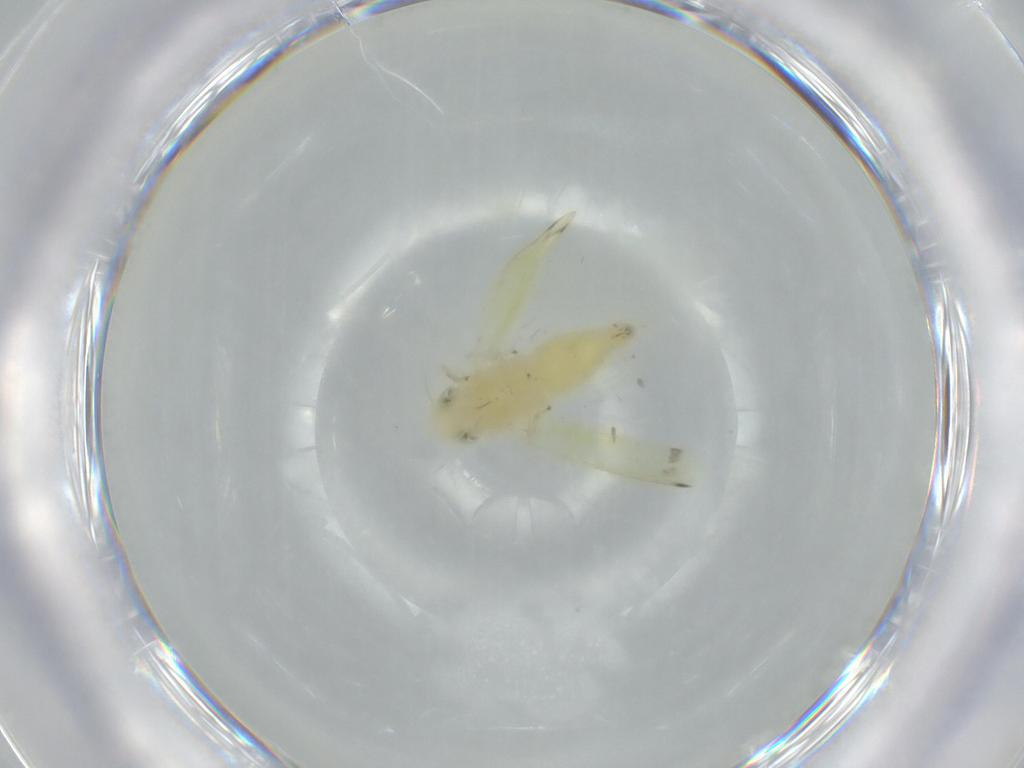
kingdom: Animalia
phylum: Arthropoda
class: Insecta
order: Hemiptera
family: Cicadellidae
